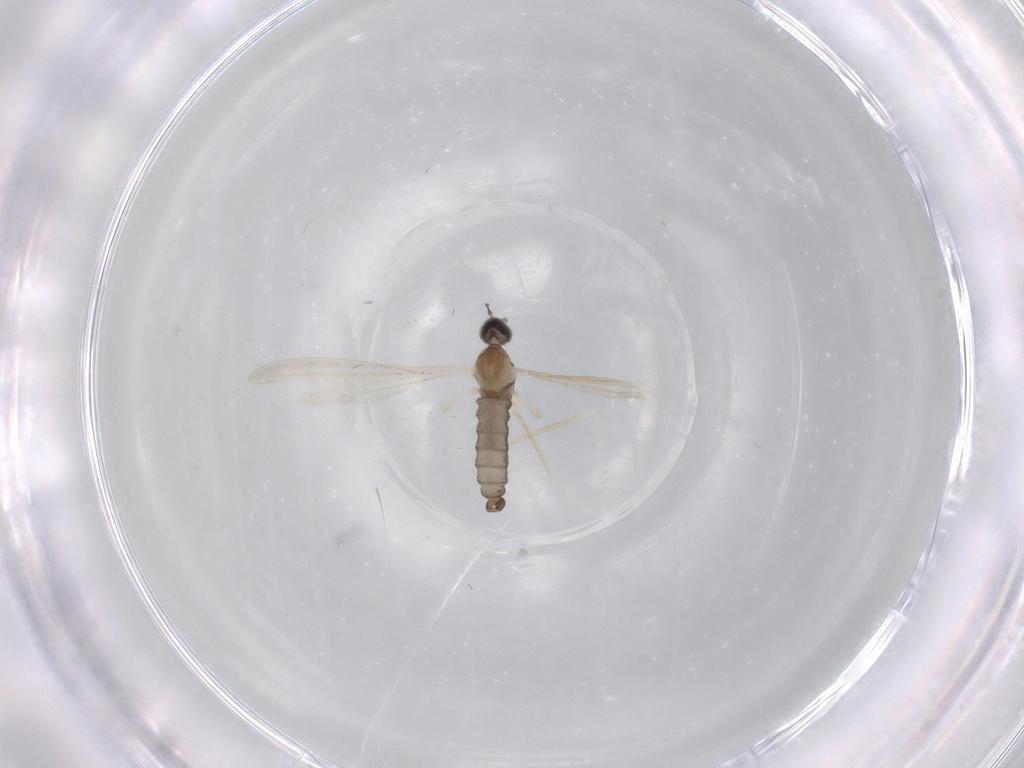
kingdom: Animalia
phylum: Arthropoda
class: Insecta
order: Diptera
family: Cecidomyiidae
